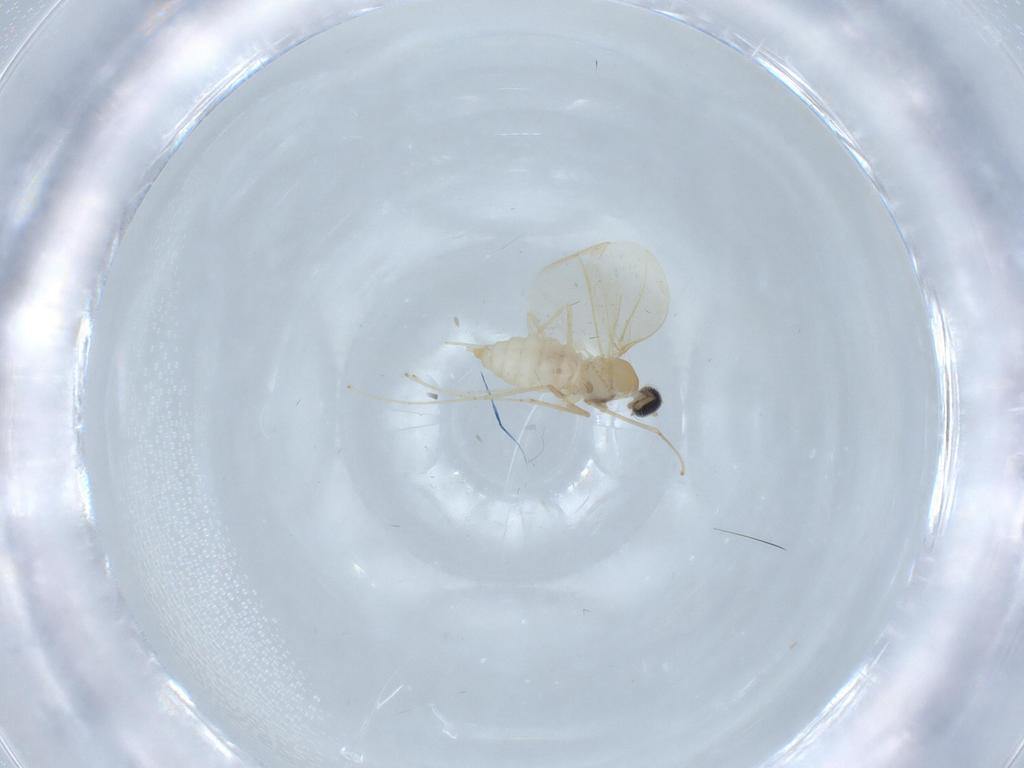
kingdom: Animalia
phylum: Arthropoda
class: Insecta
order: Diptera
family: Cecidomyiidae
